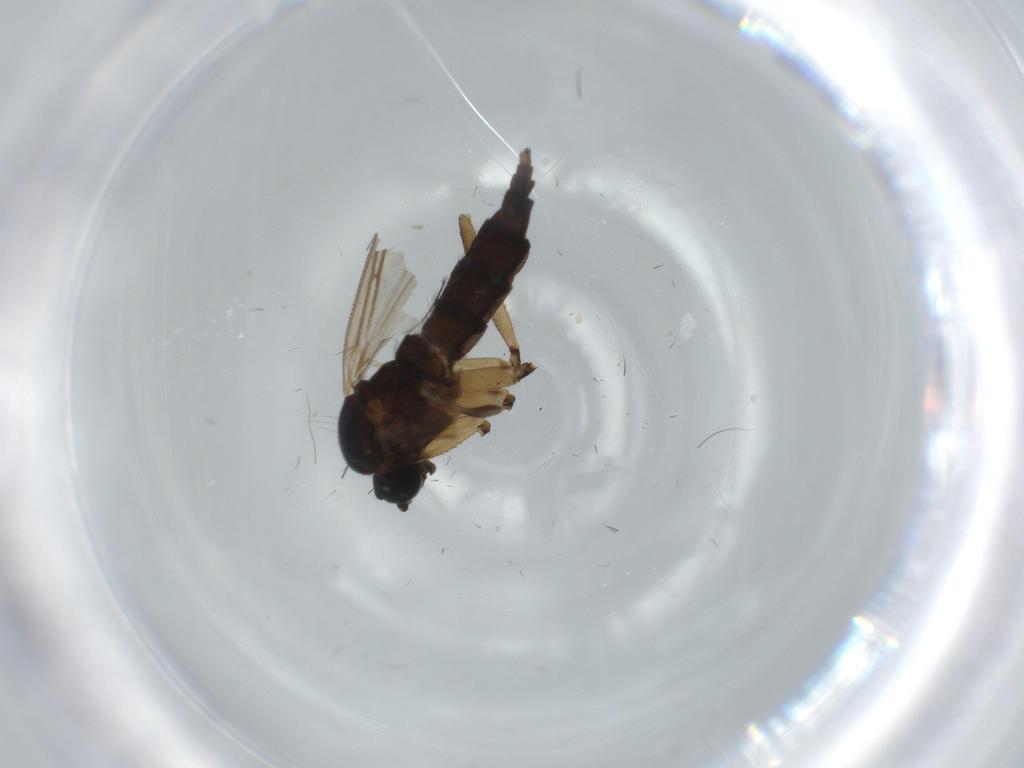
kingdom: Animalia
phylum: Arthropoda
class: Insecta
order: Diptera
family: Sciaridae
